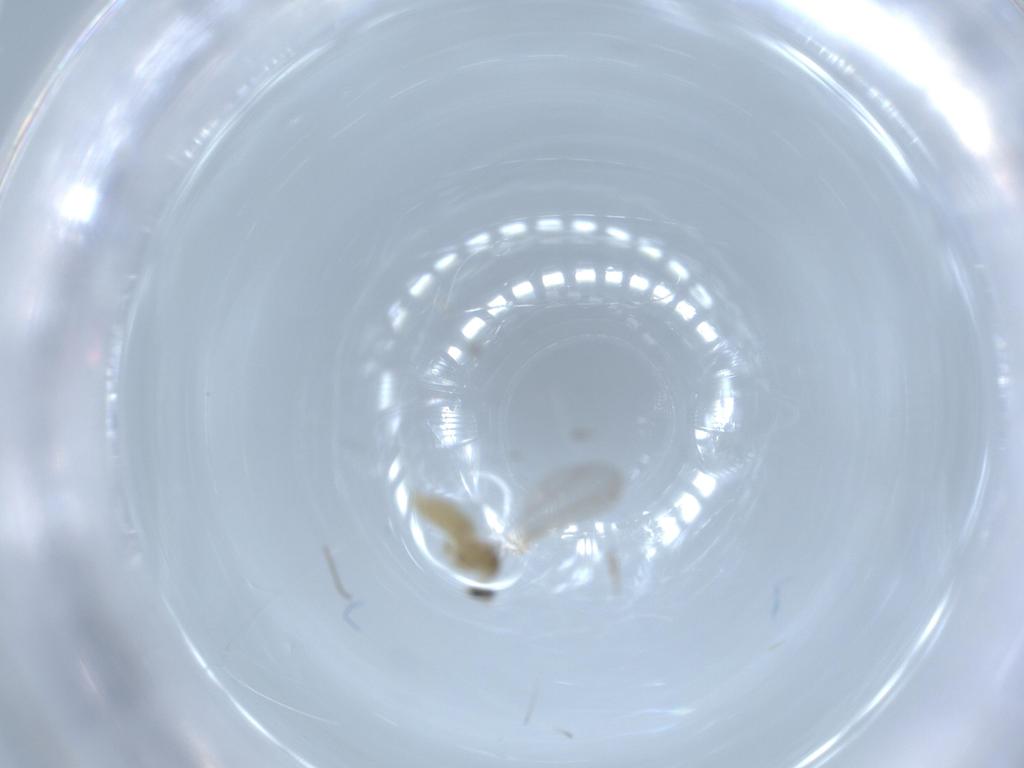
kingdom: Animalia
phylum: Arthropoda
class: Insecta
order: Diptera
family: Cecidomyiidae
